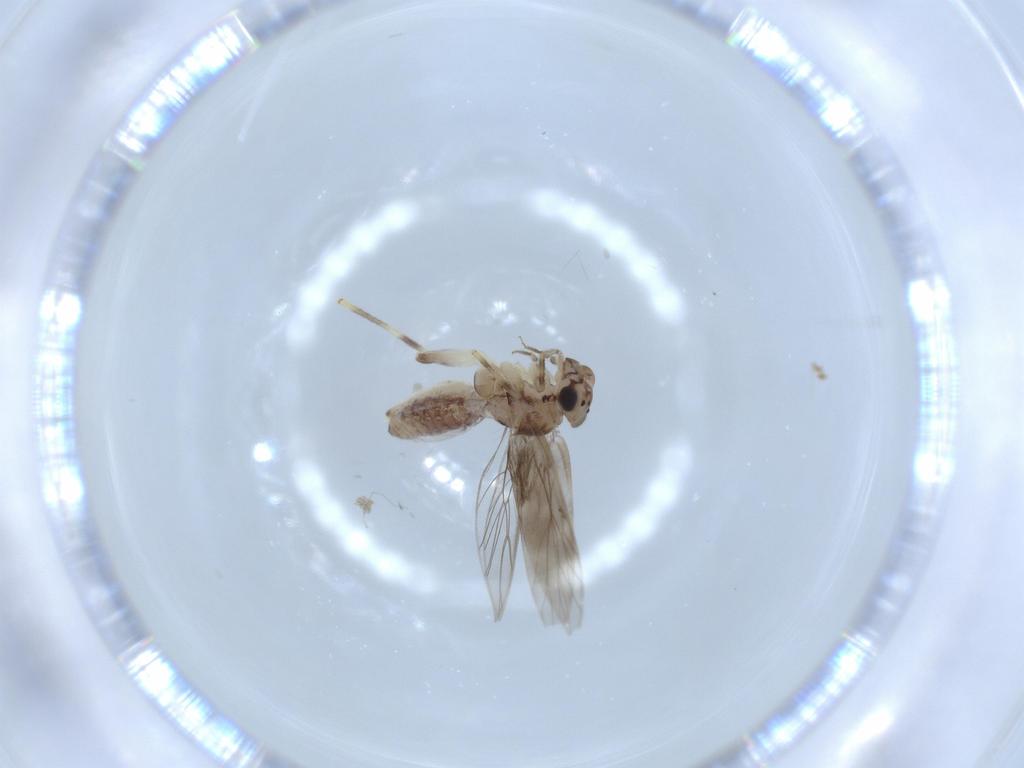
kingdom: Animalia
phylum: Arthropoda
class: Insecta
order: Psocodea
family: Lepidopsocidae
